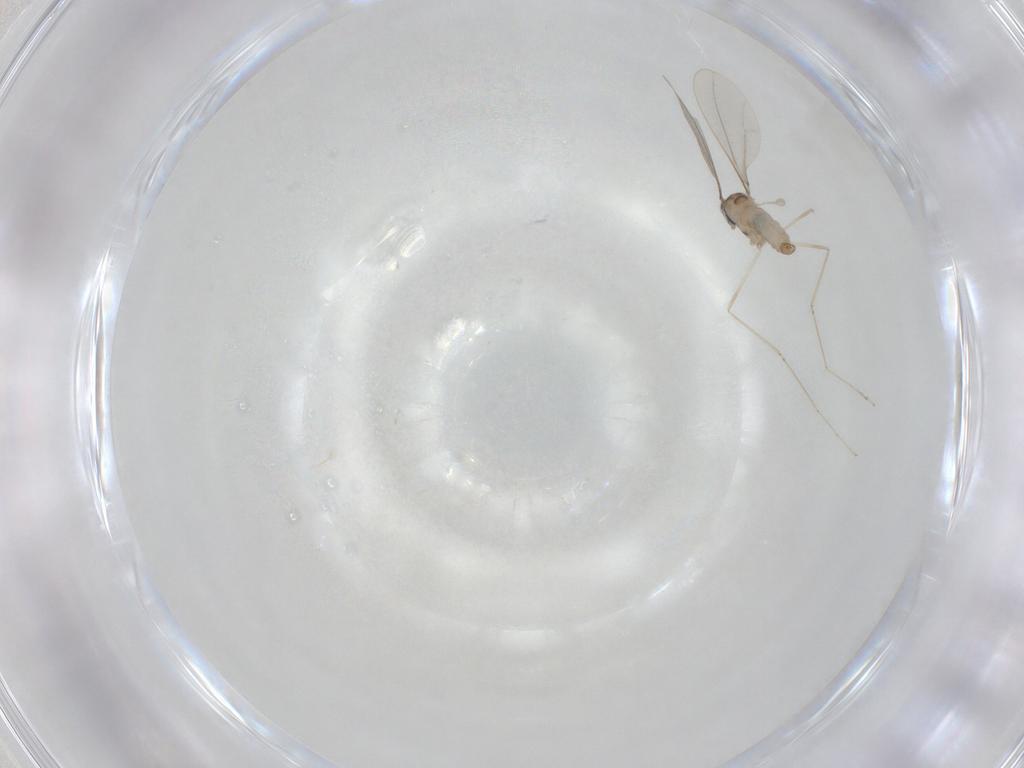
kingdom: Animalia
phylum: Arthropoda
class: Insecta
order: Diptera
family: Cecidomyiidae
